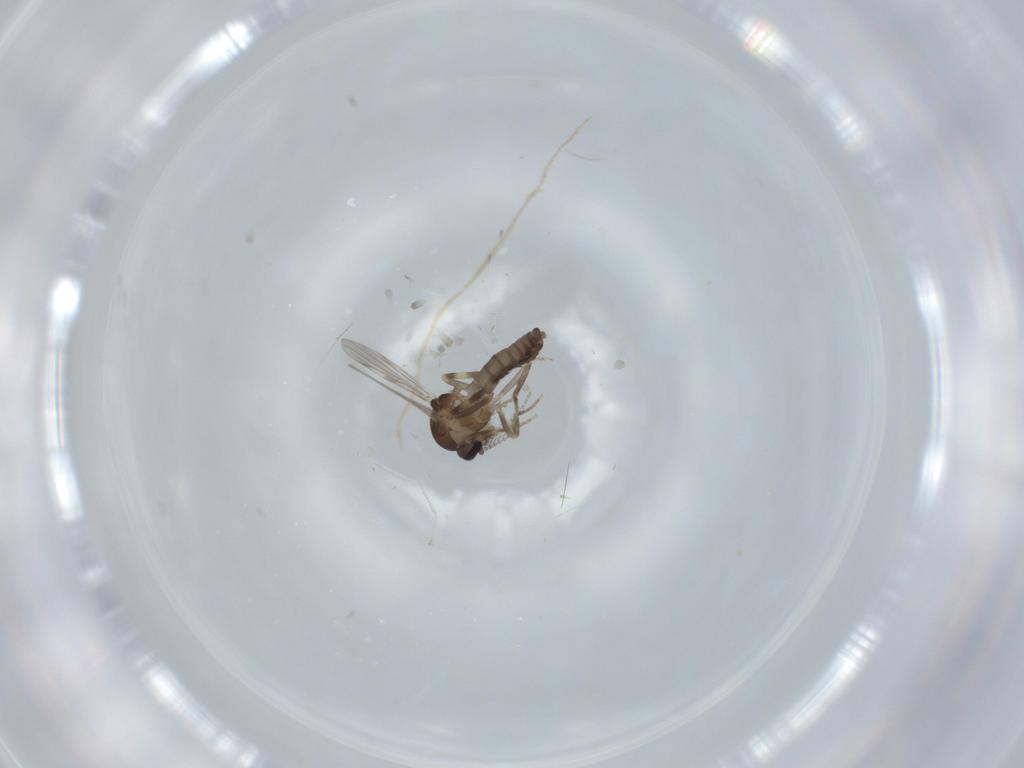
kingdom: Animalia
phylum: Arthropoda
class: Insecta
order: Diptera
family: Ceratopogonidae
